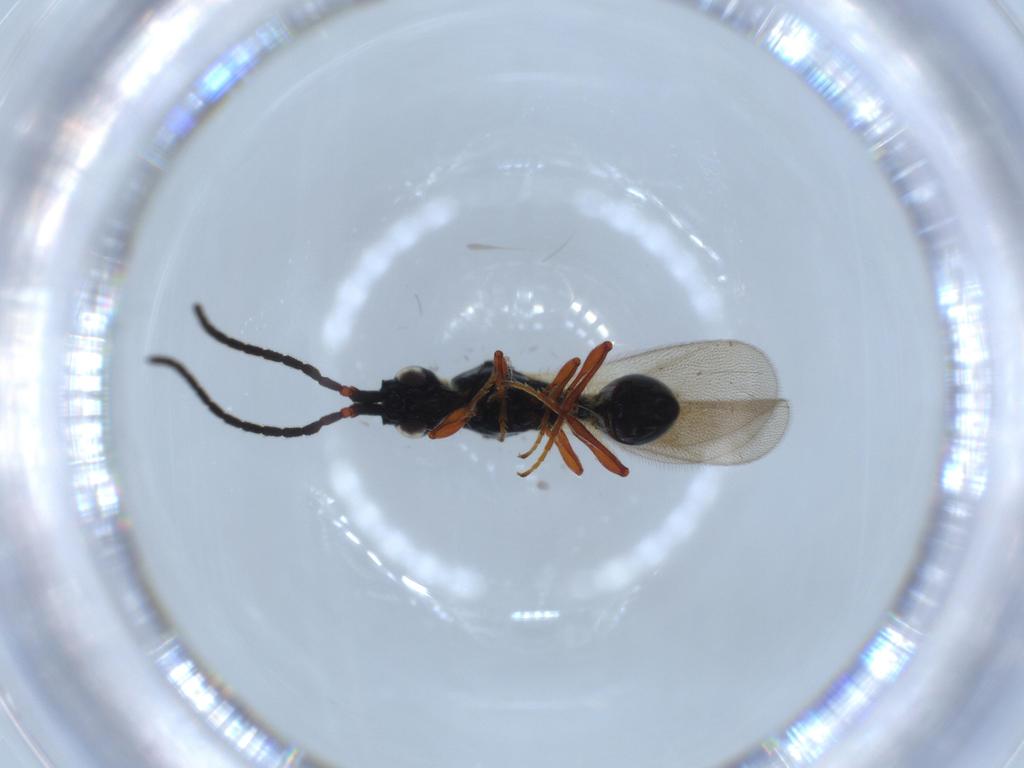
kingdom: Animalia
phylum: Arthropoda
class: Insecta
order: Hymenoptera
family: Diapriidae
